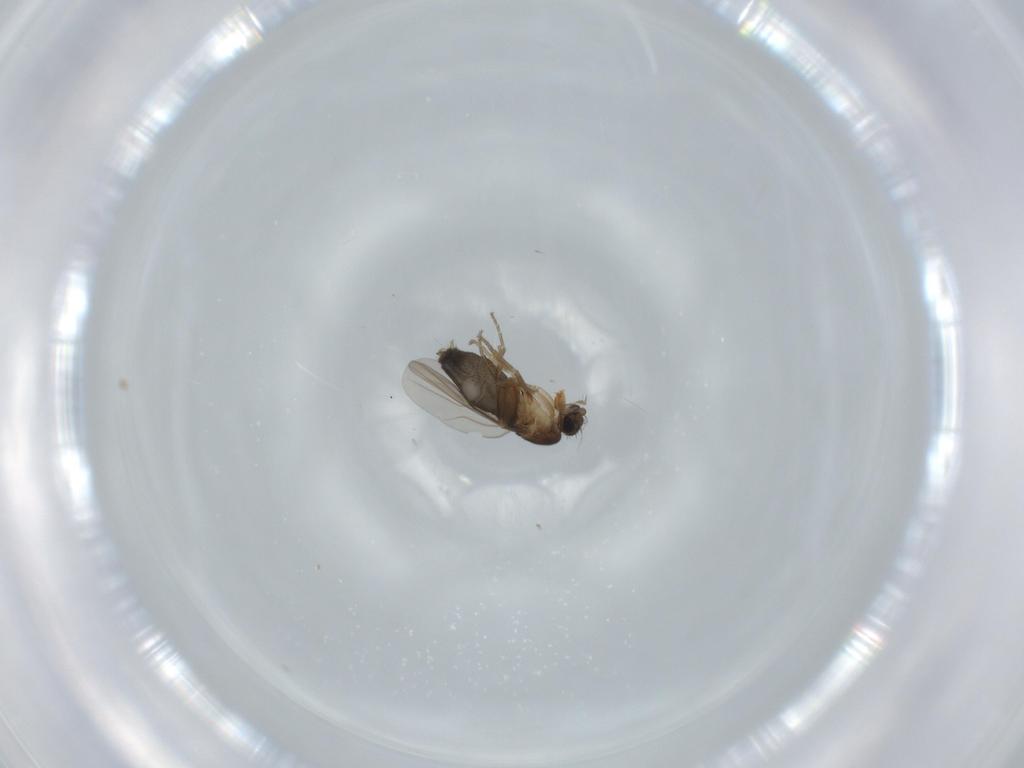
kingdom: Animalia
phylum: Arthropoda
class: Insecta
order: Diptera
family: Phoridae
